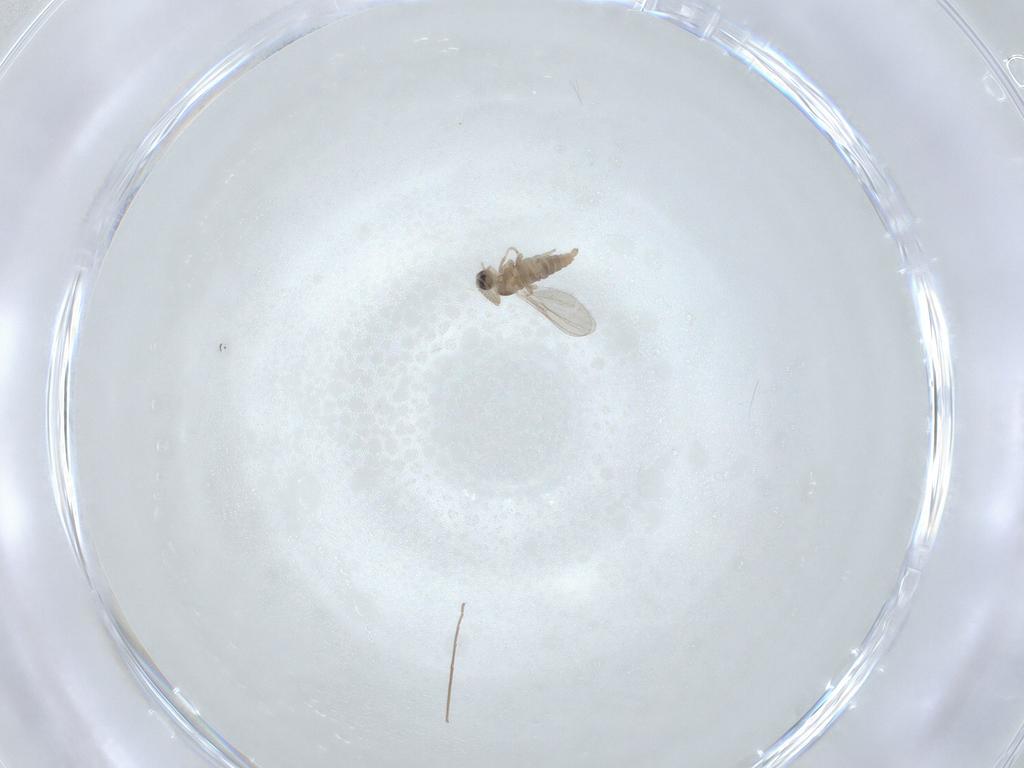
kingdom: Animalia
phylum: Arthropoda
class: Insecta
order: Diptera
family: Cecidomyiidae
